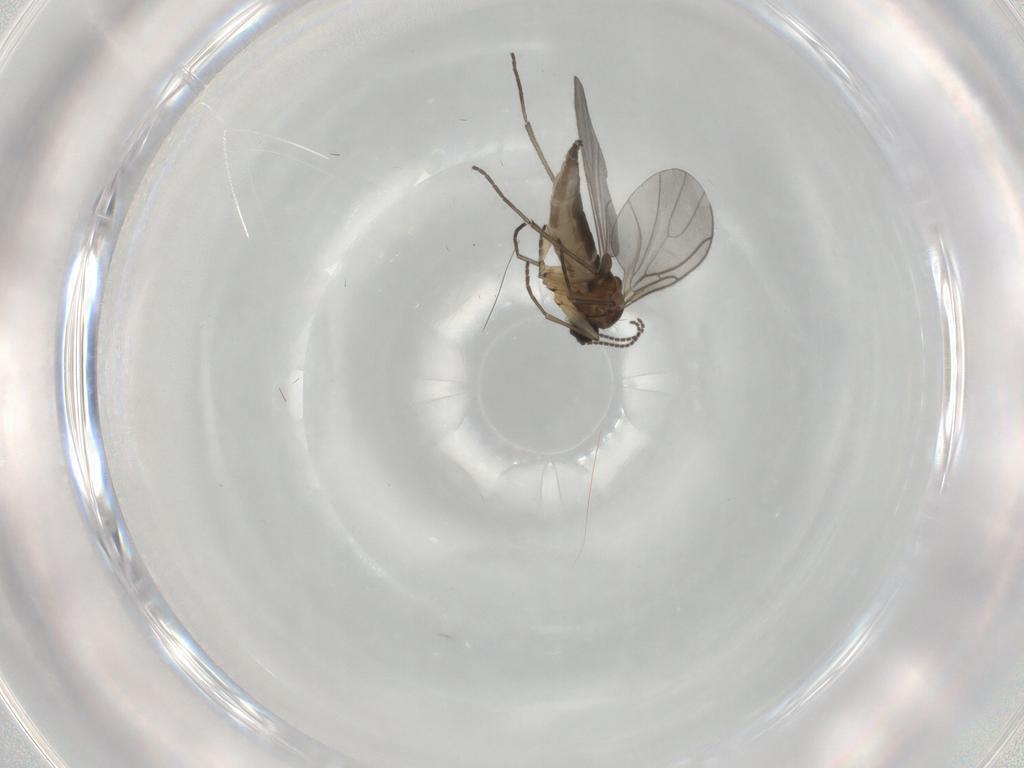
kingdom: Animalia
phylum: Arthropoda
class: Insecta
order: Diptera
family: Sciaridae
